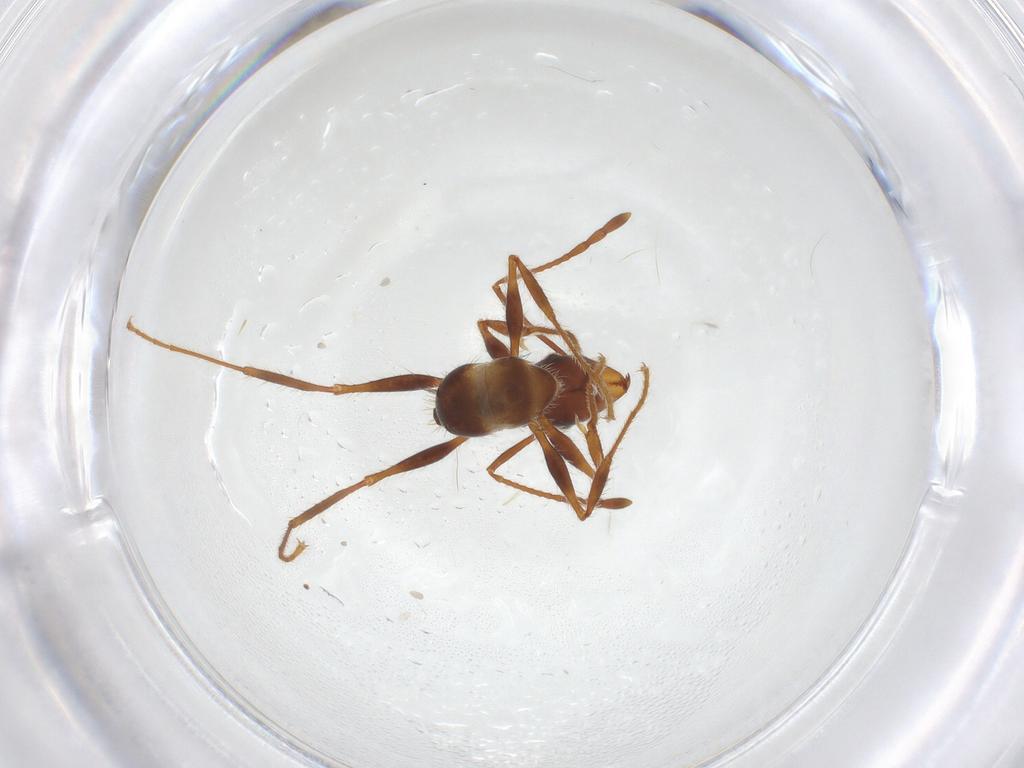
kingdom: Animalia
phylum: Arthropoda
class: Insecta
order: Hymenoptera
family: Formicidae
